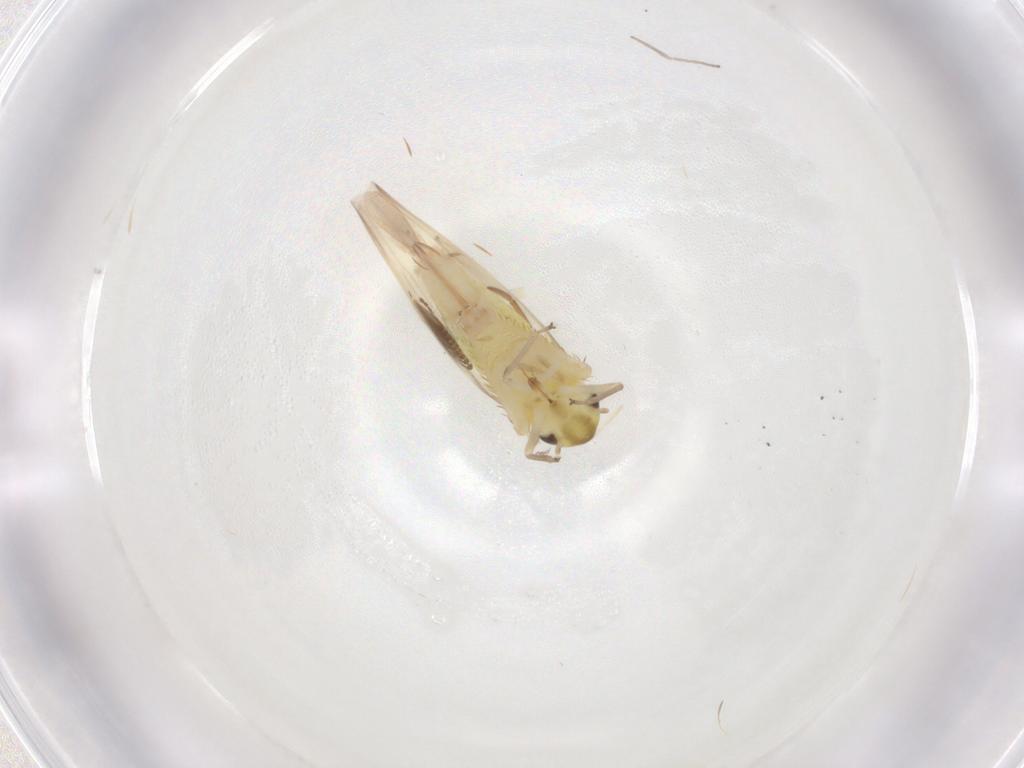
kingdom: Animalia
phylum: Arthropoda
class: Insecta
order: Hemiptera
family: Cicadellidae
